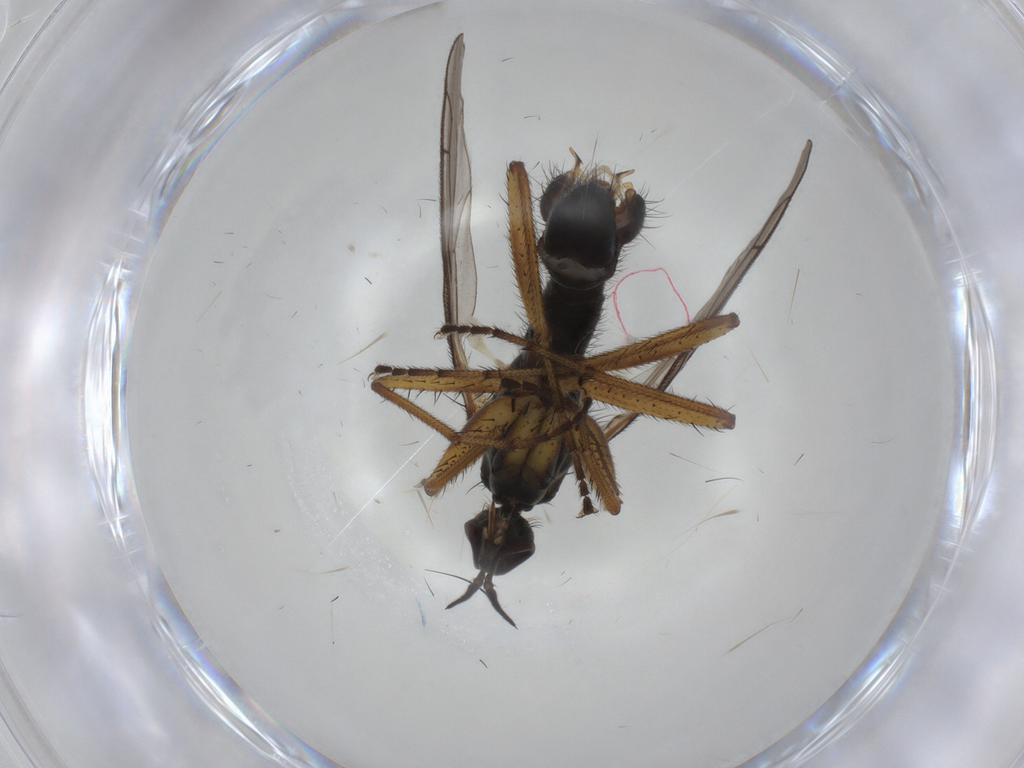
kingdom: Animalia
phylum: Arthropoda
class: Insecta
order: Diptera
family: Empididae
